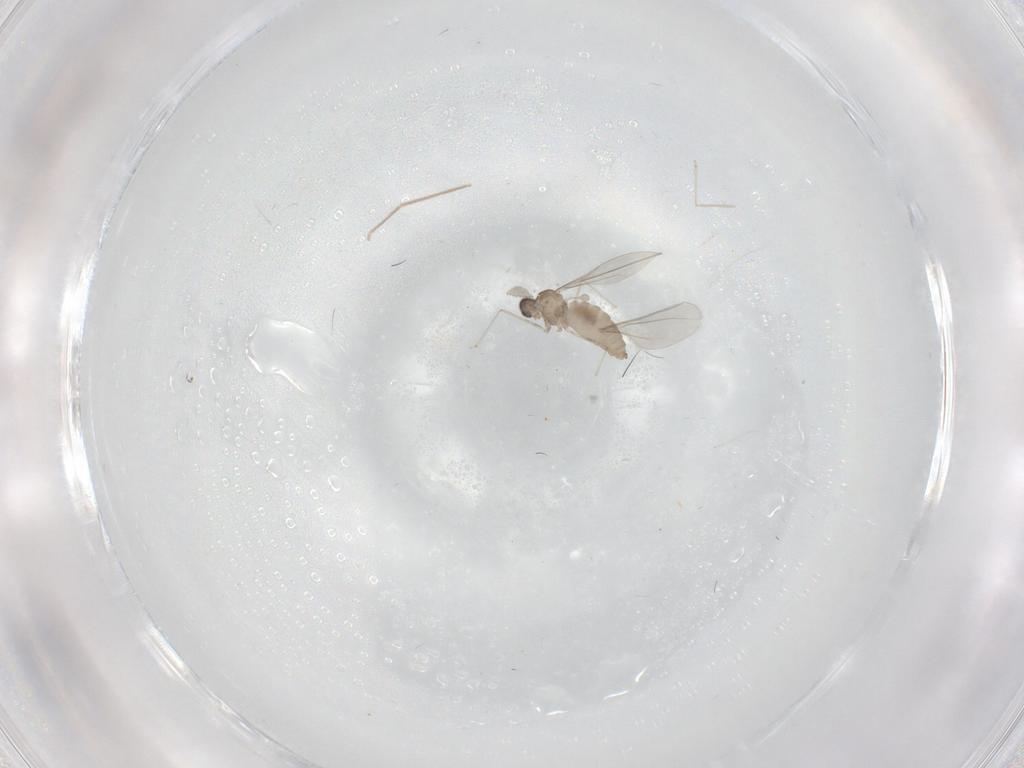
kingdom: Animalia
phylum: Arthropoda
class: Insecta
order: Diptera
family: Chironomidae
